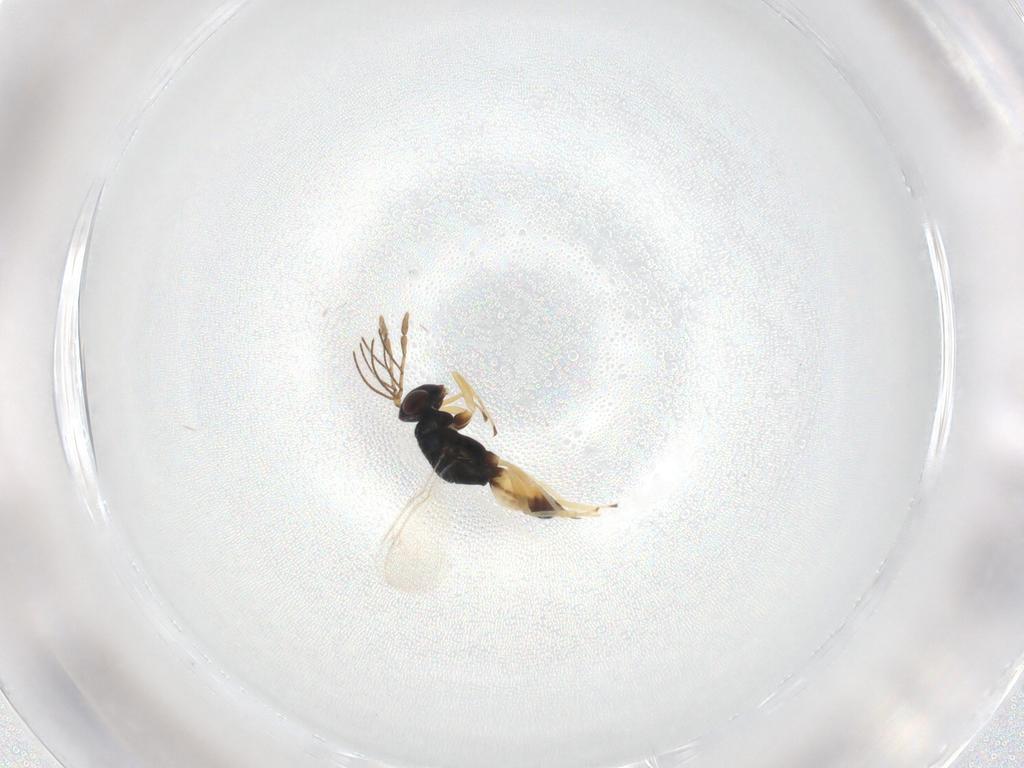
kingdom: Animalia
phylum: Arthropoda
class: Insecta
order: Hymenoptera
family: Eulophidae
